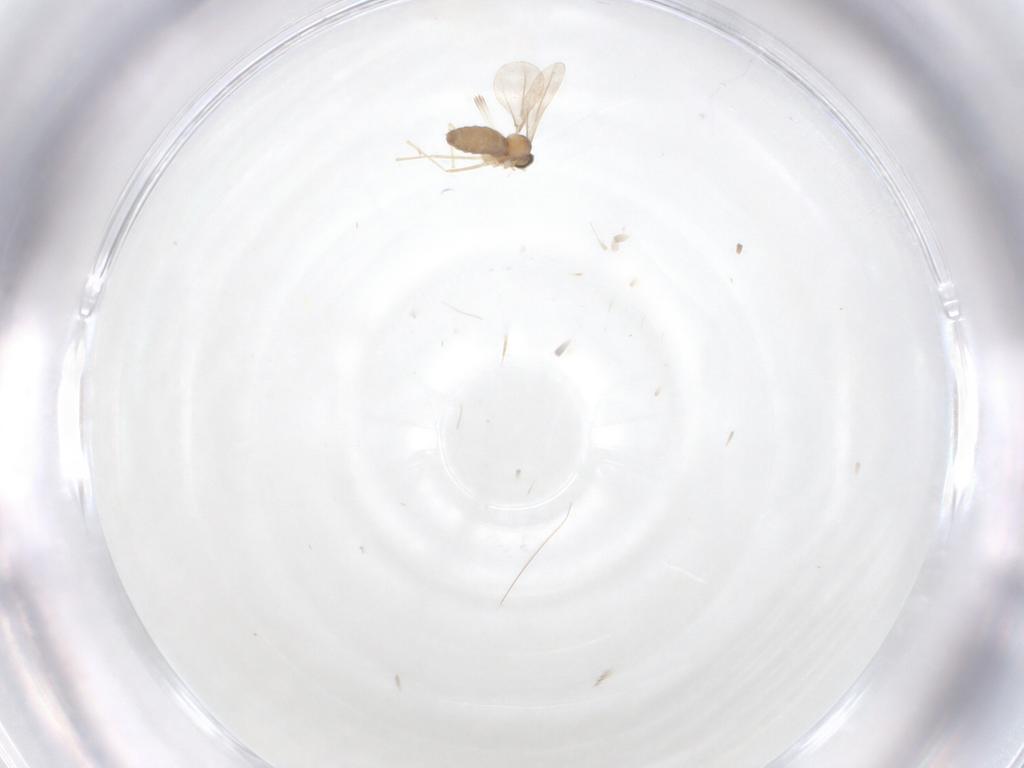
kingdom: Animalia
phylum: Arthropoda
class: Insecta
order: Diptera
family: Cecidomyiidae
